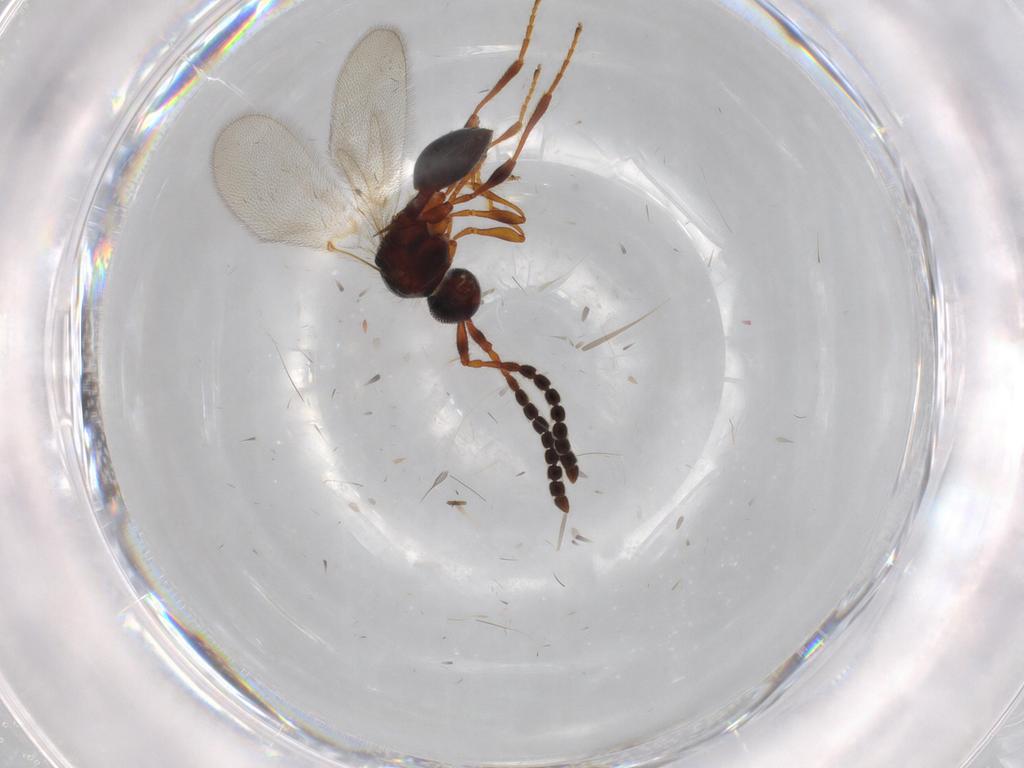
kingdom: Animalia
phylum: Arthropoda
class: Insecta
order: Hymenoptera
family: Diapriidae
